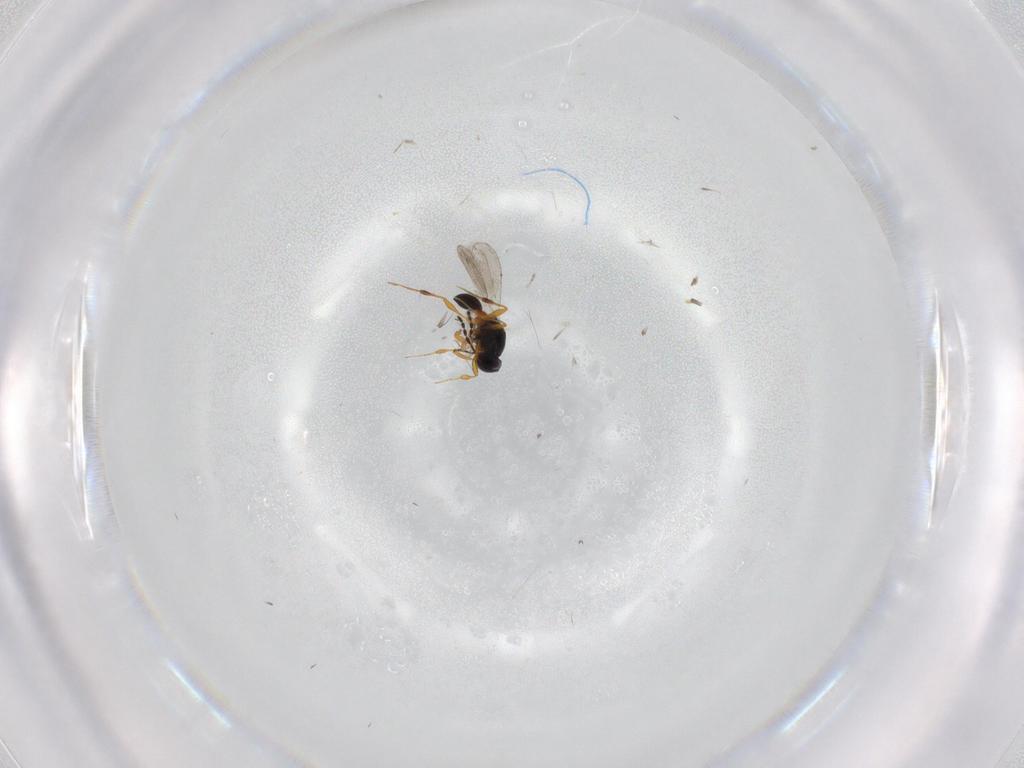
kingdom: Animalia
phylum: Arthropoda
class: Insecta
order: Hymenoptera
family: Platygastridae
